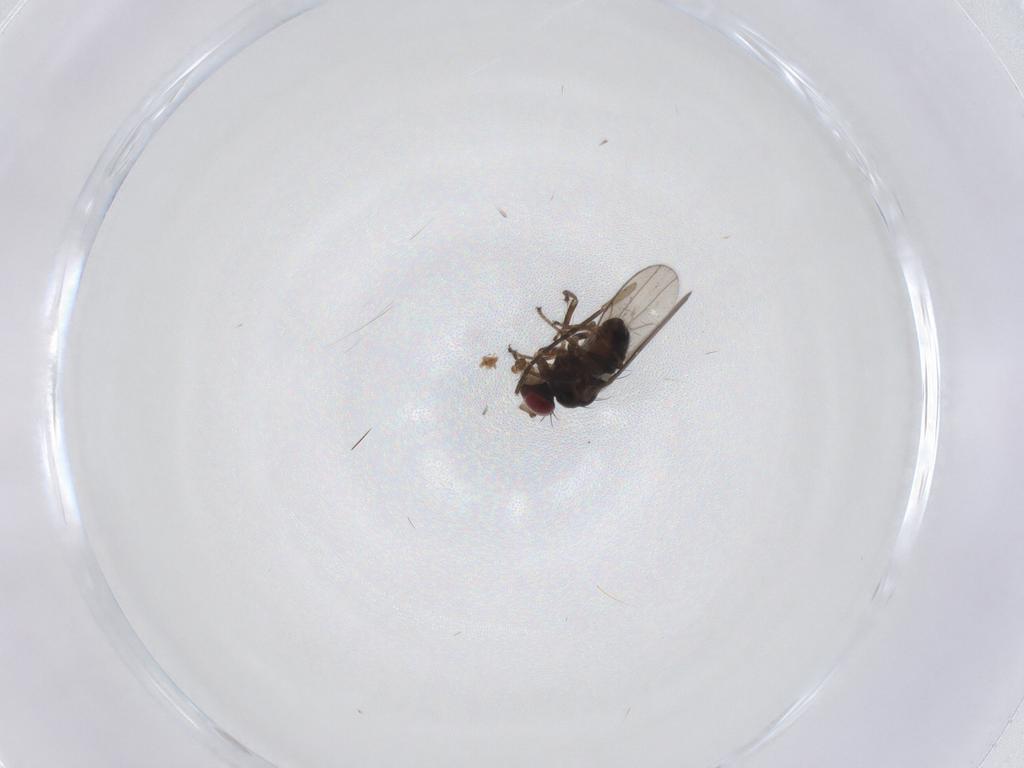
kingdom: Animalia
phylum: Arthropoda
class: Insecta
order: Diptera
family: Ephydridae
